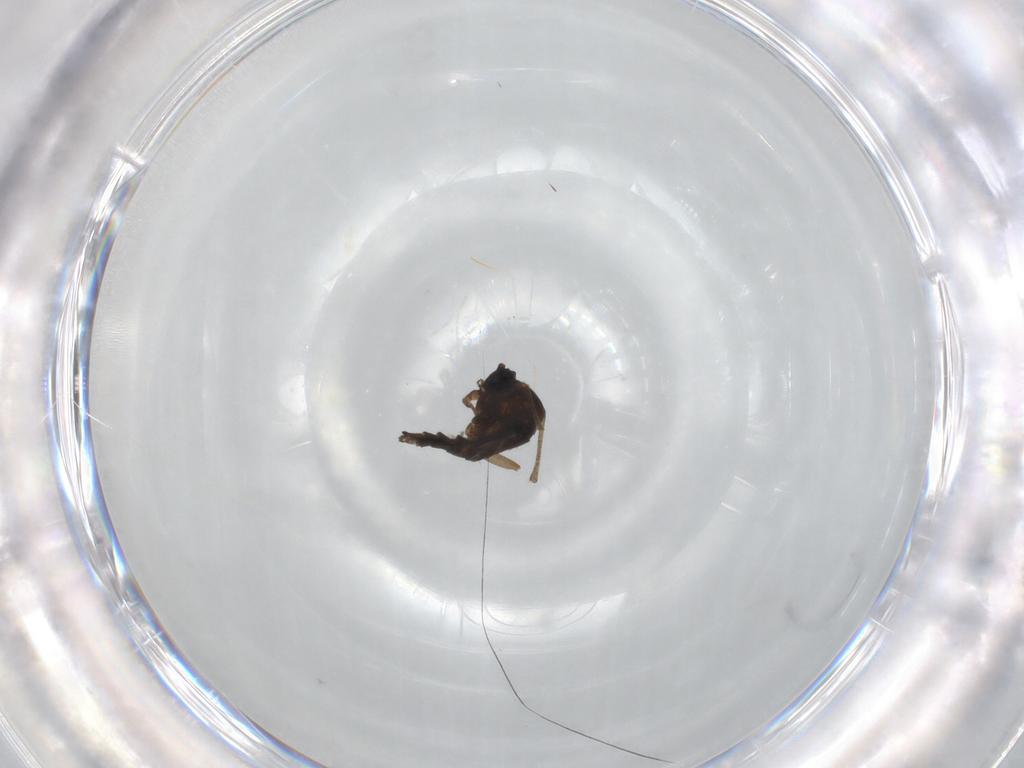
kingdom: Animalia
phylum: Arthropoda
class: Insecta
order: Diptera
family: Sciaridae
